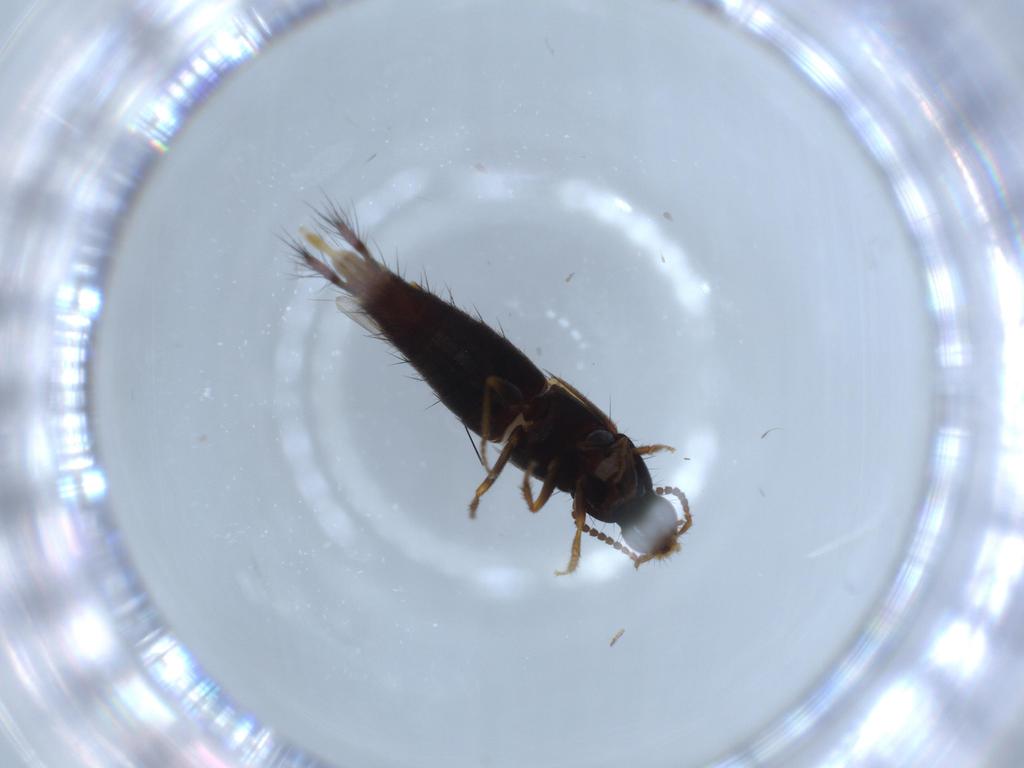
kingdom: Animalia
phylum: Arthropoda
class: Insecta
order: Coleoptera
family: Staphylinidae
